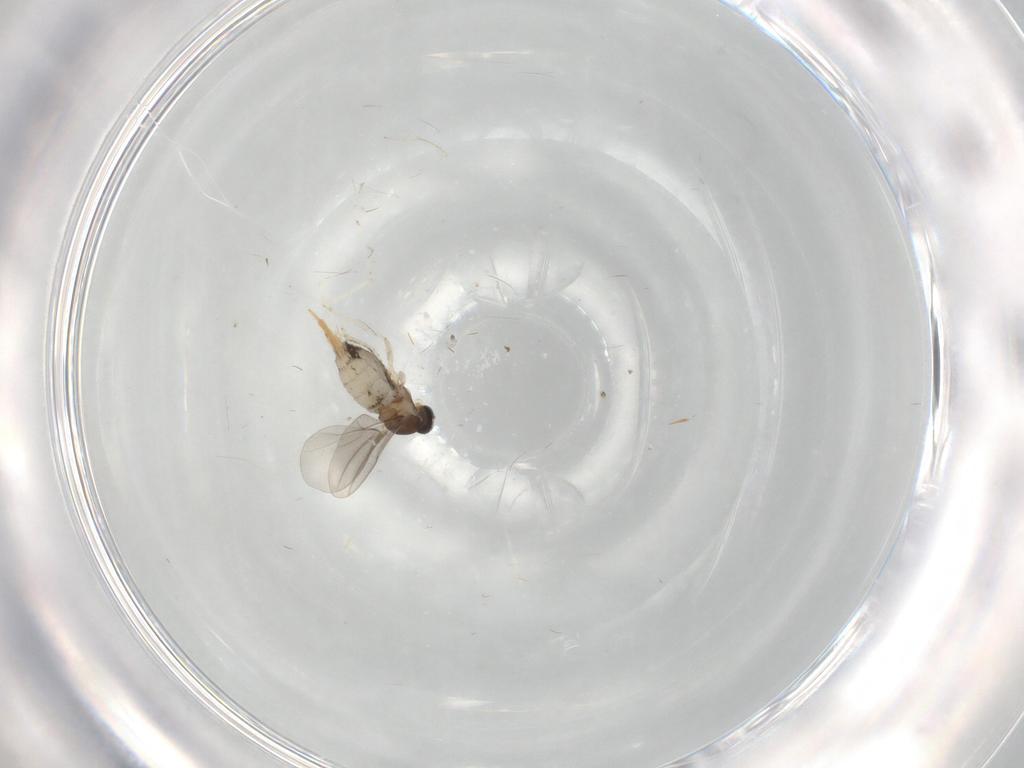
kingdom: Animalia
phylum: Arthropoda
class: Insecta
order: Diptera
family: Cecidomyiidae
